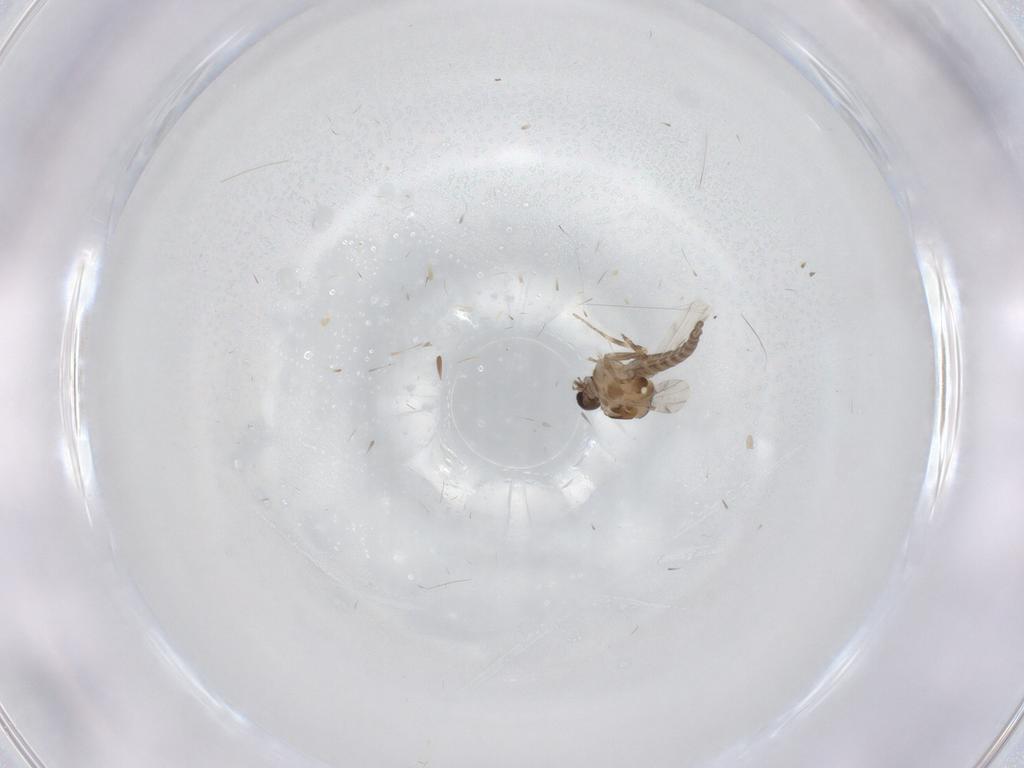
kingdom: Animalia
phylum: Arthropoda
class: Insecta
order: Diptera
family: Ceratopogonidae
